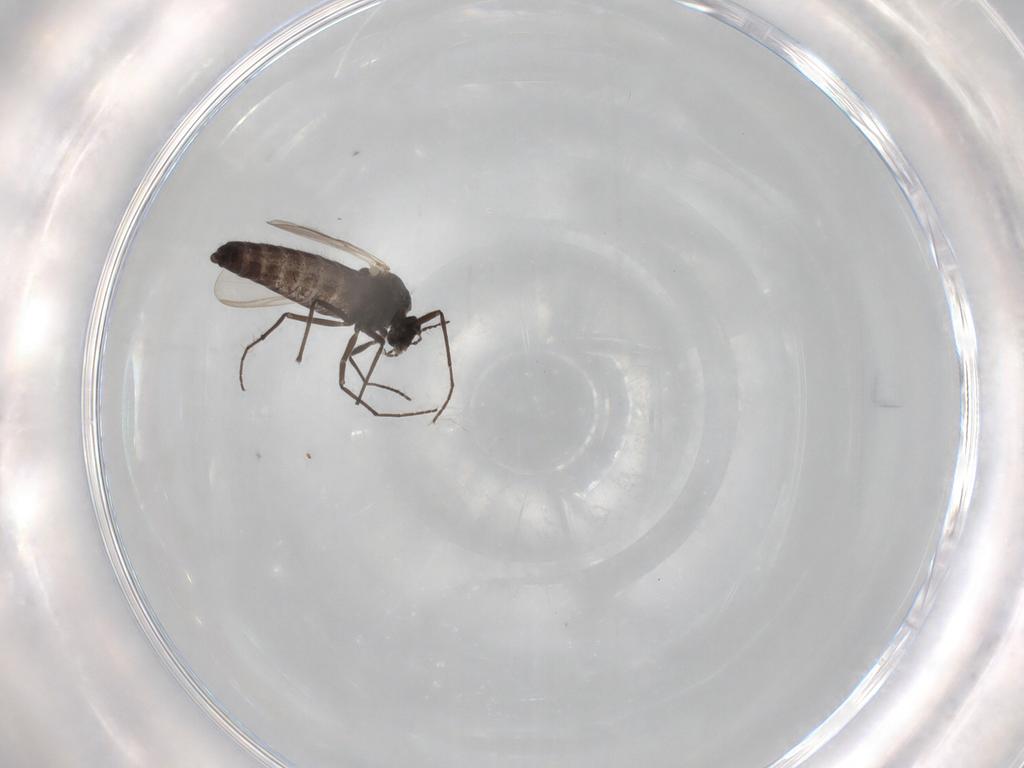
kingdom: Animalia
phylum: Arthropoda
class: Insecta
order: Diptera
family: Anthomyiidae
